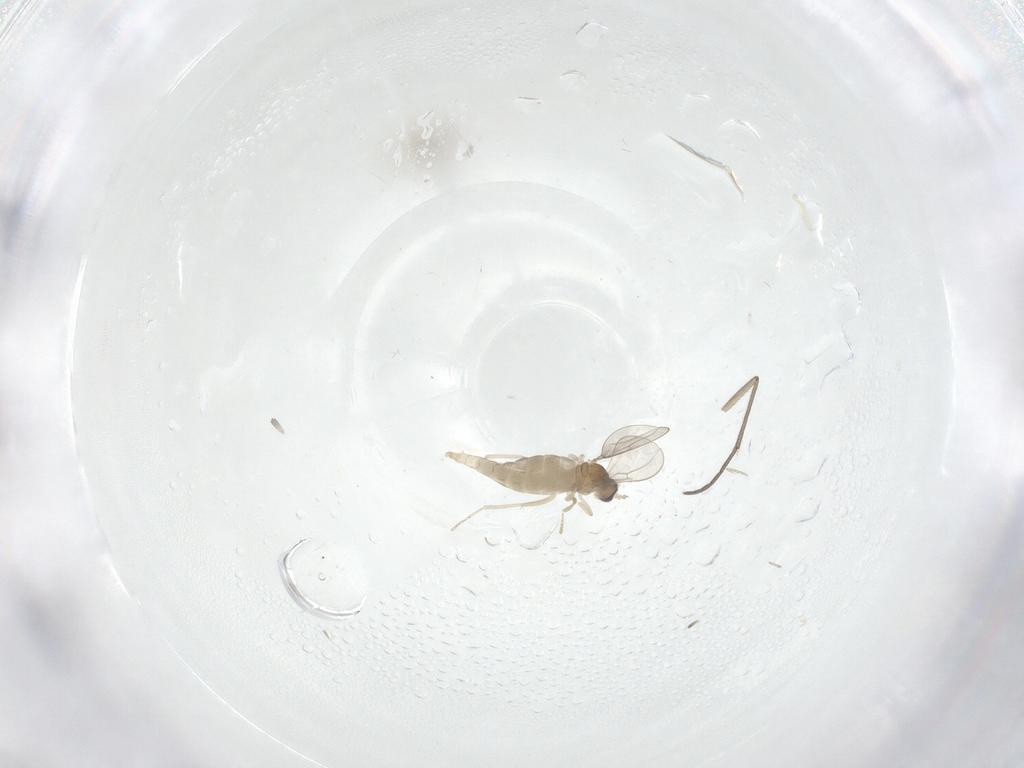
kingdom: Animalia
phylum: Arthropoda
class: Insecta
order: Diptera
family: Cecidomyiidae
